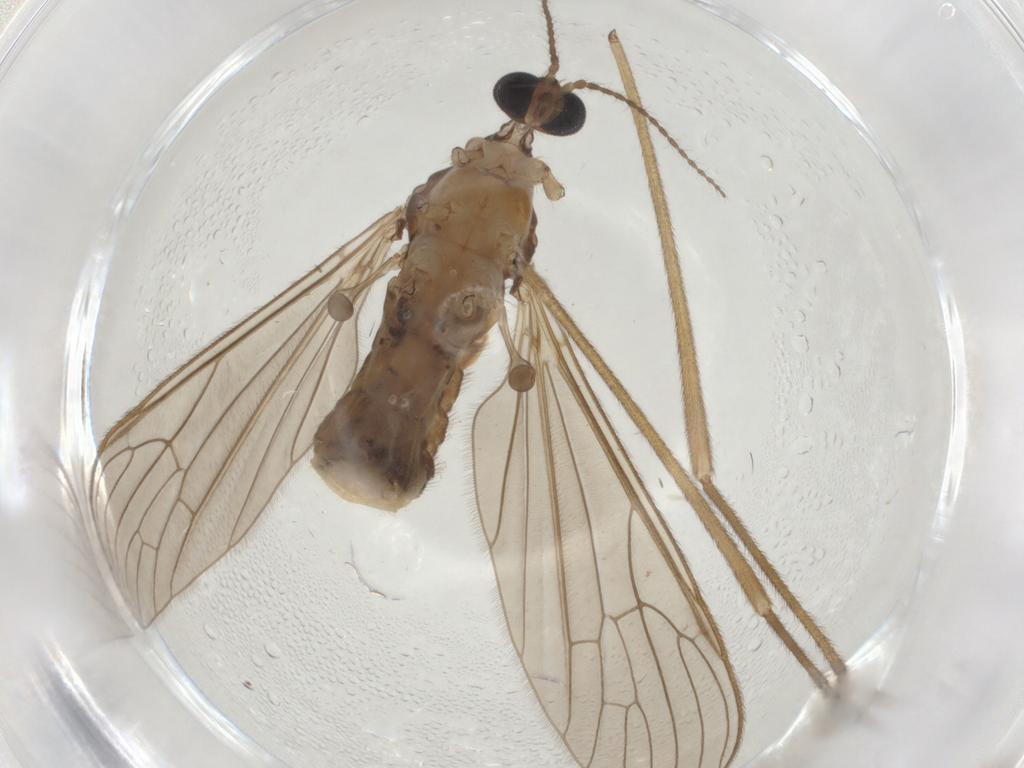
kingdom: Animalia
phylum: Arthropoda
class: Insecta
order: Diptera
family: Limoniidae
